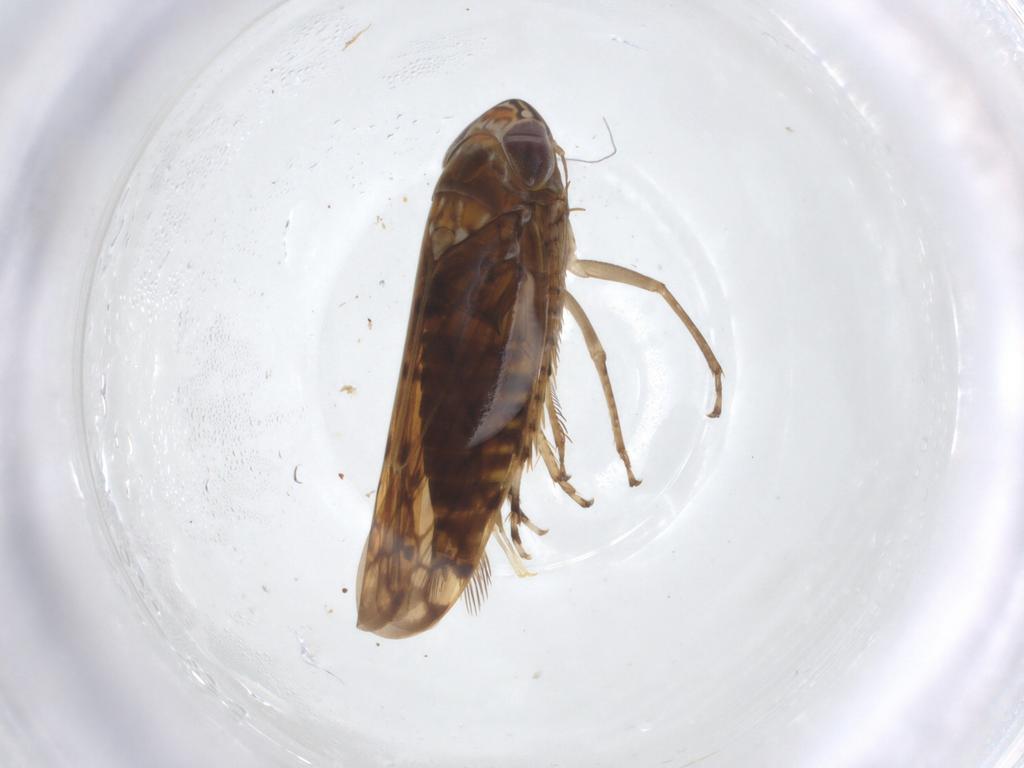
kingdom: Animalia
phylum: Arthropoda
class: Insecta
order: Hemiptera
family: Cicadellidae
